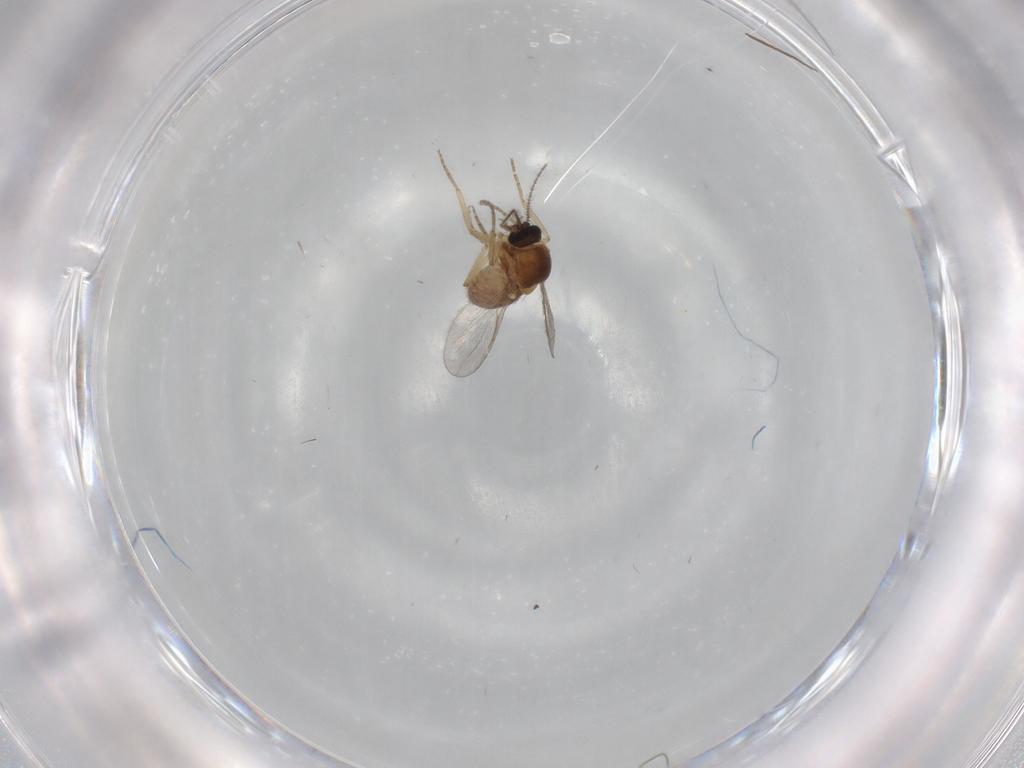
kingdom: Animalia
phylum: Arthropoda
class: Insecta
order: Diptera
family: Ceratopogonidae
